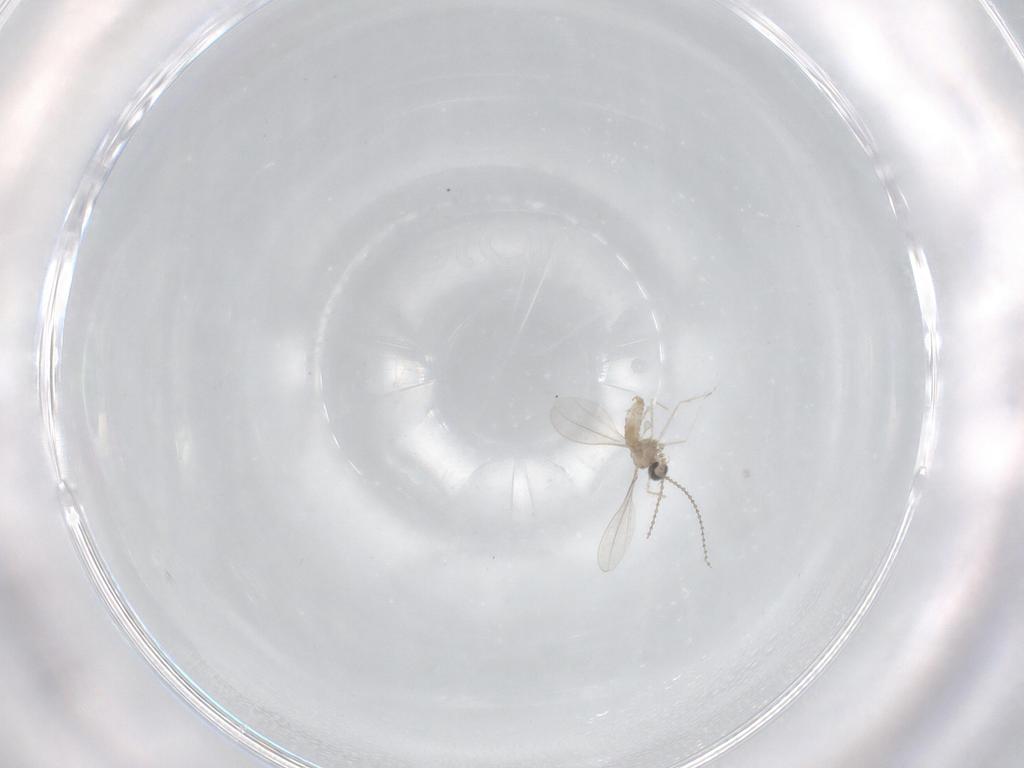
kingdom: Animalia
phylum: Arthropoda
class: Insecta
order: Diptera
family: Cecidomyiidae
